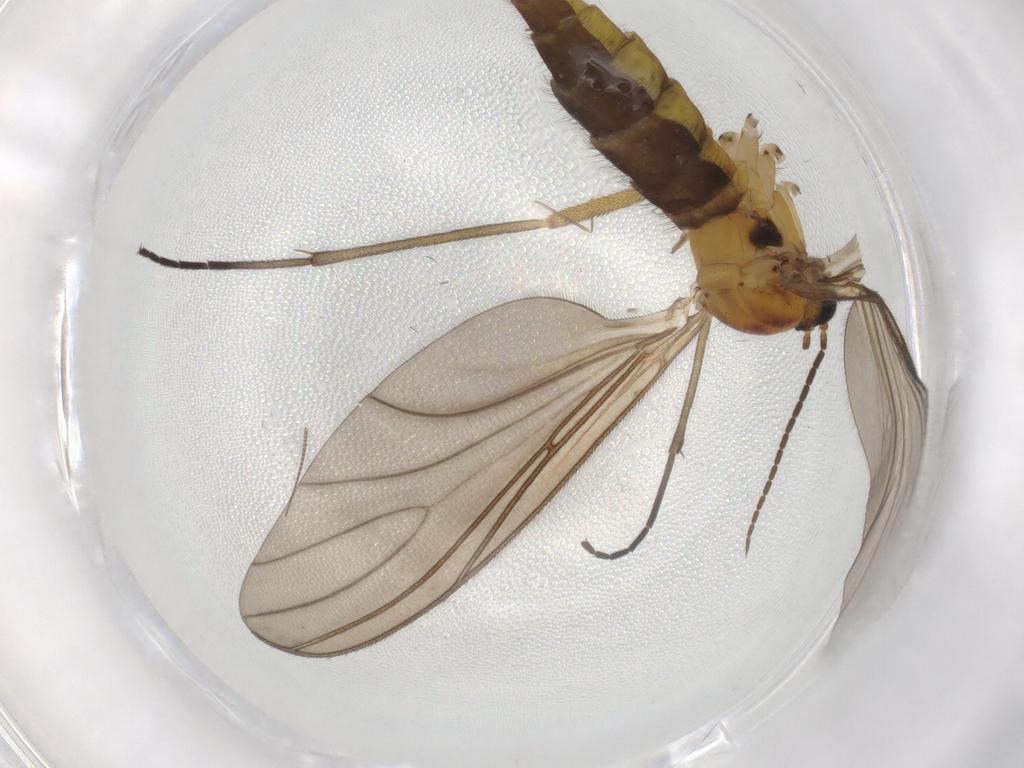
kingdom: Animalia
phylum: Arthropoda
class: Insecta
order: Diptera
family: Sciaridae
